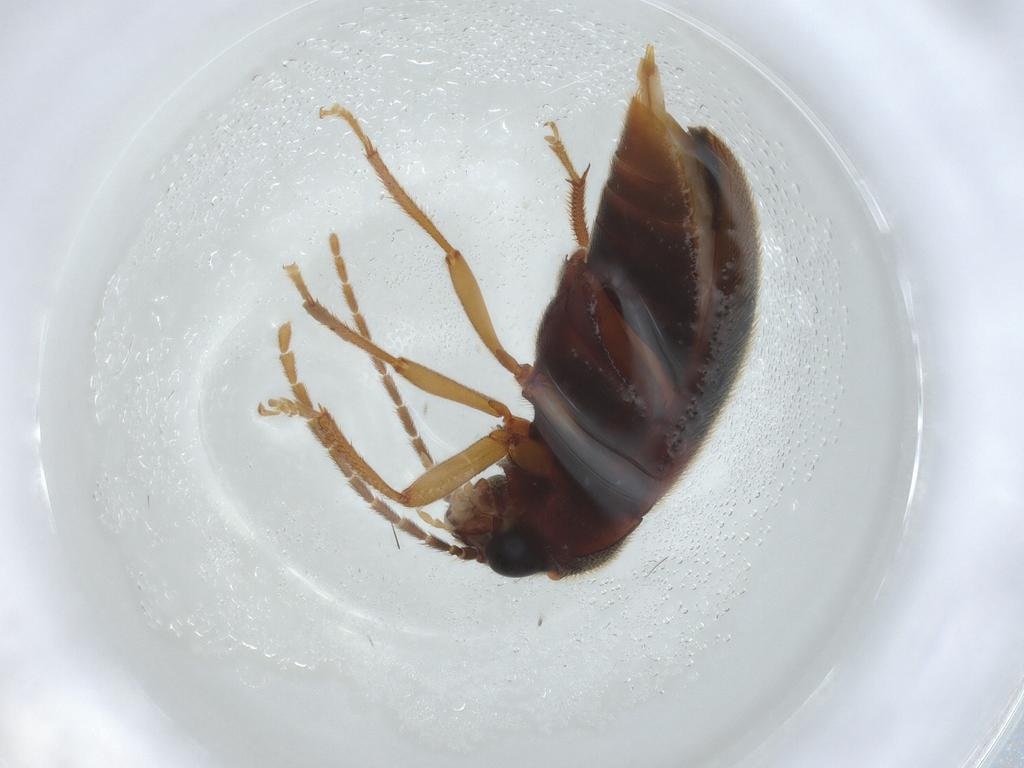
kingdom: Animalia
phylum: Arthropoda
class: Insecta
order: Coleoptera
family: Ptilodactylidae
